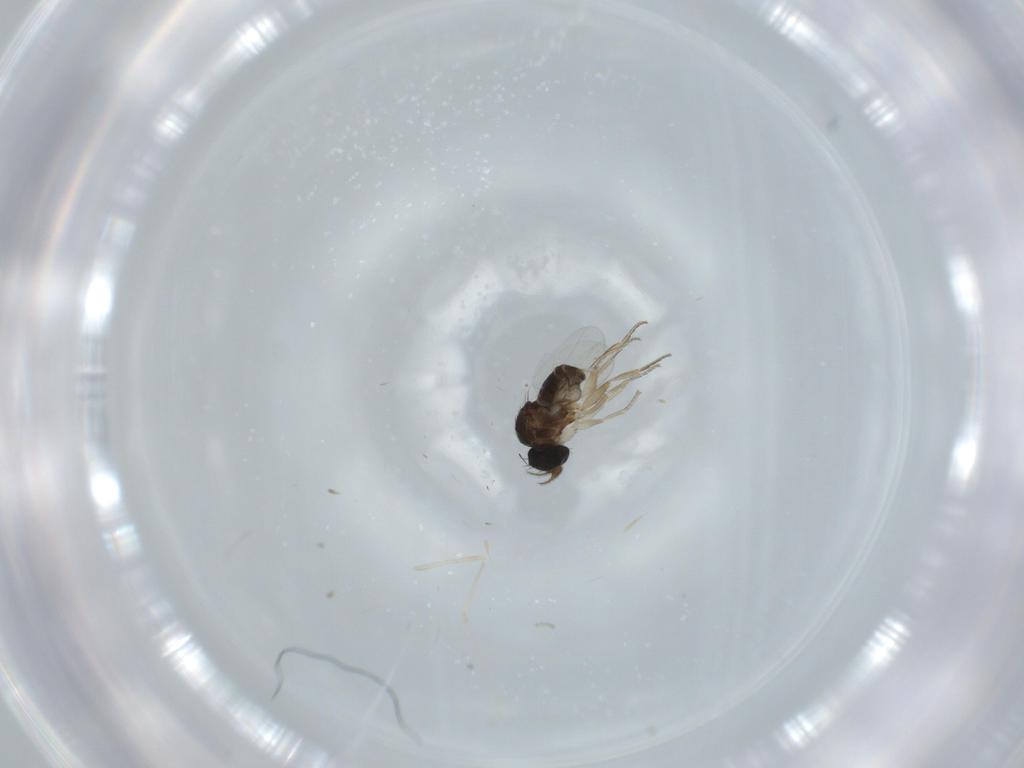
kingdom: Animalia
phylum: Arthropoda
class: Insecta
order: Diptera
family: Phoridae
